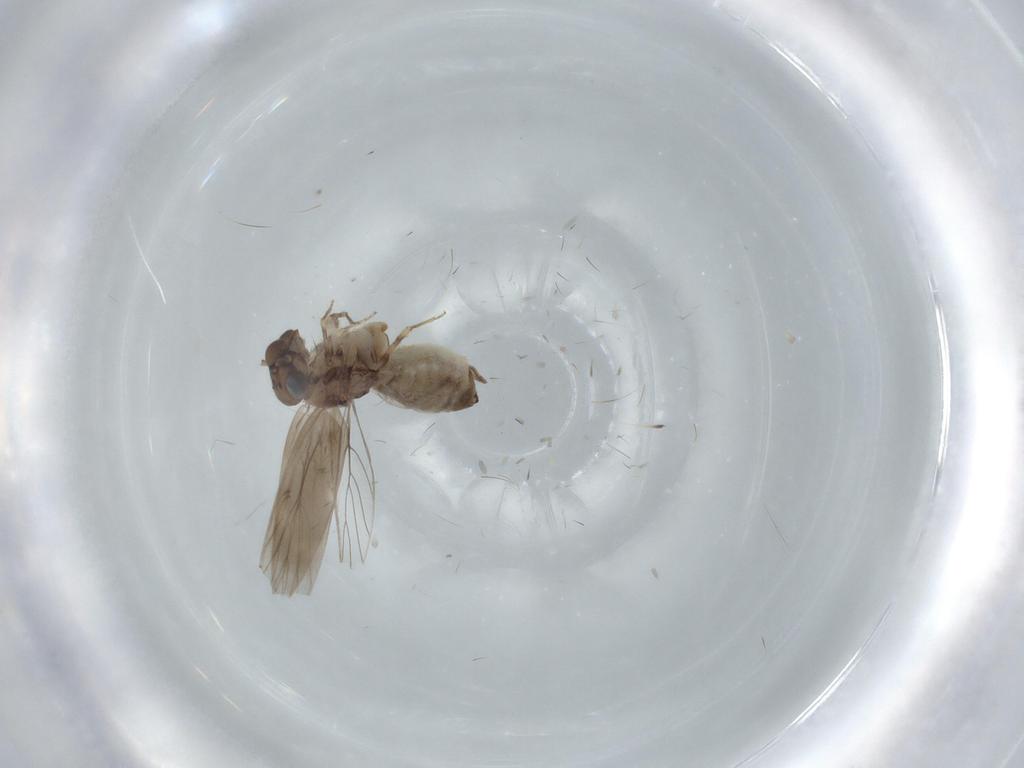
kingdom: Animalia
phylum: Arthropoda
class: Insecta
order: Psocodea
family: Lepidopsocidae
